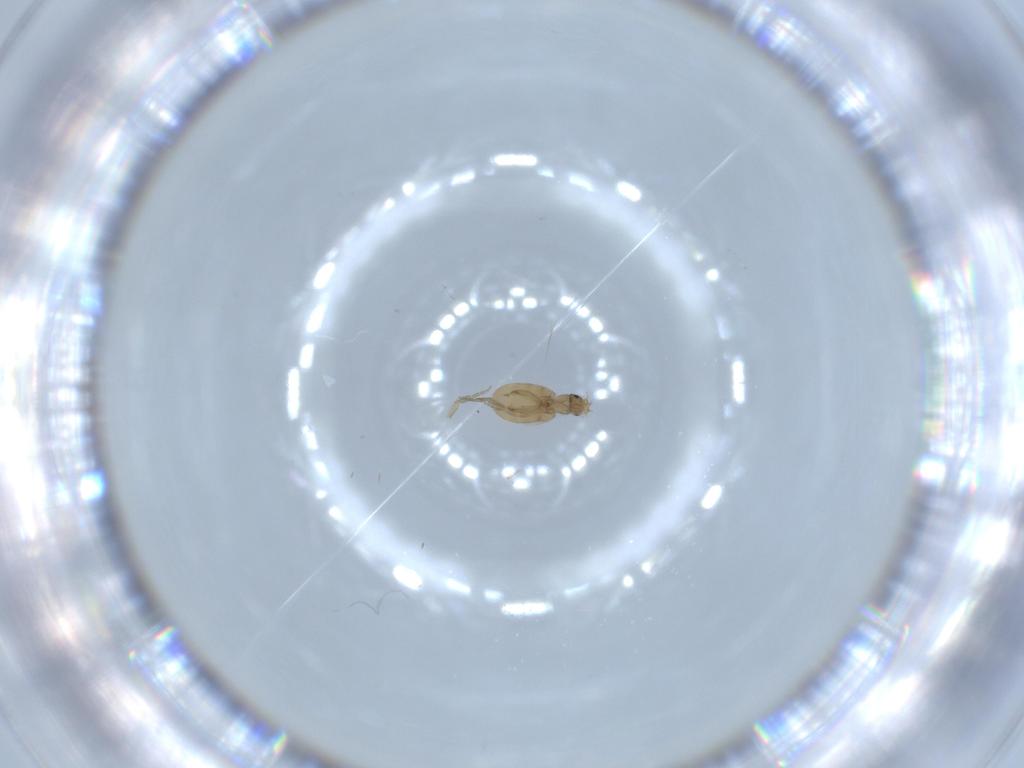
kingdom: Animalia
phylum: Arthropoda
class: Insecta
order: Diptera
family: Phoridae
